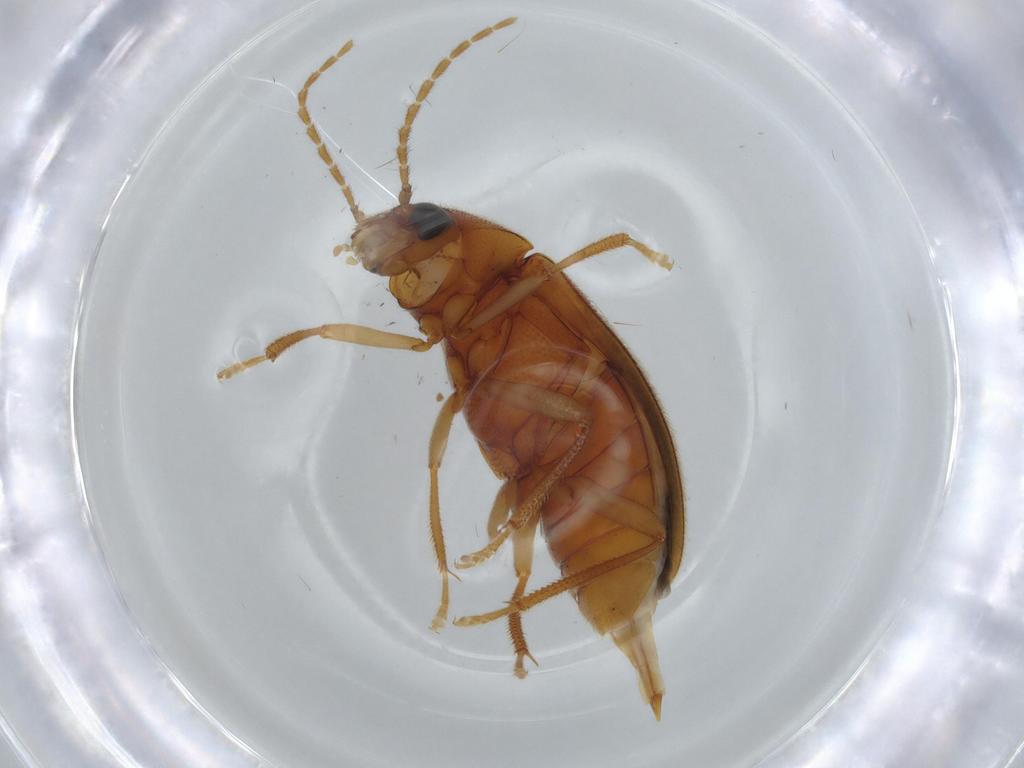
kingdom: Animalia
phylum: Arthropoda
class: Insecta
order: Coleoptera
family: Ptilodactylidae
